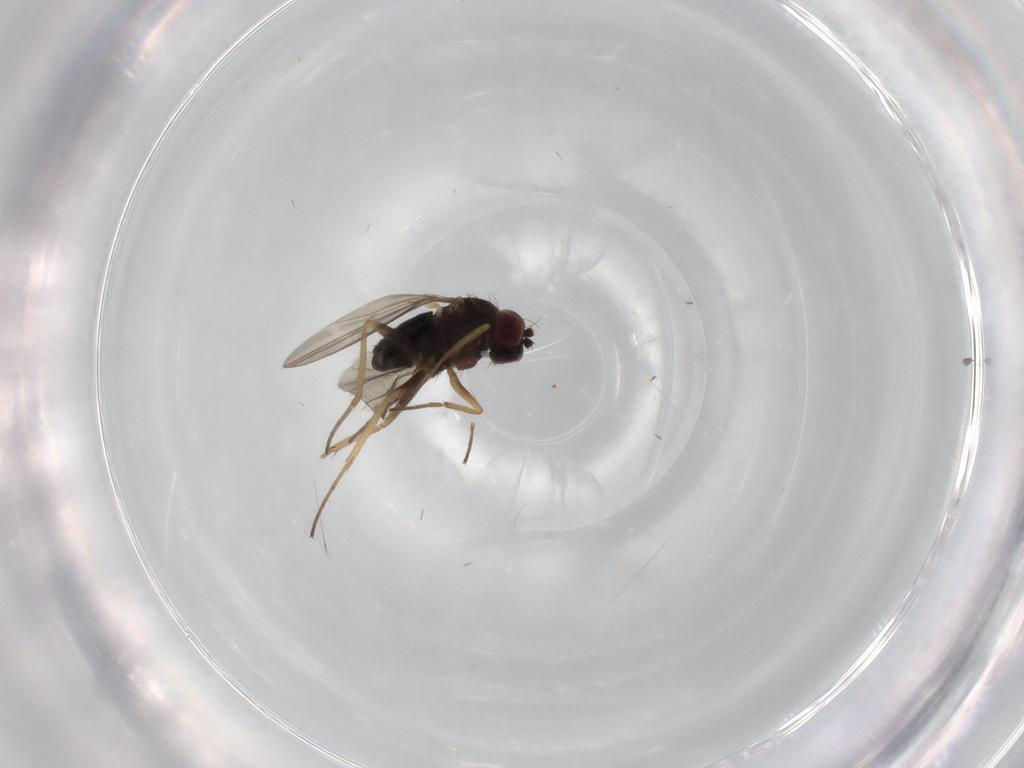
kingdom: Animalia
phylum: Arthropoda
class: Insecta
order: Diptera
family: Dolichopodidae
